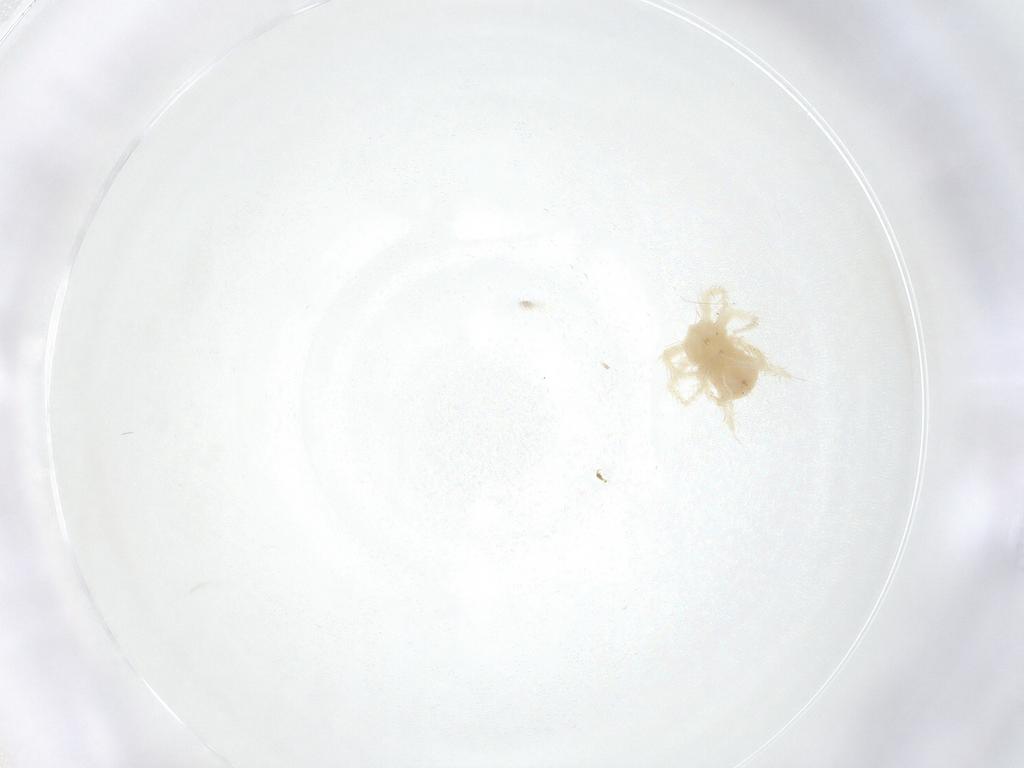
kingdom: Animalia
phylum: Arthropoda
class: Arachnida
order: Trombidiformes
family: Anystidae
